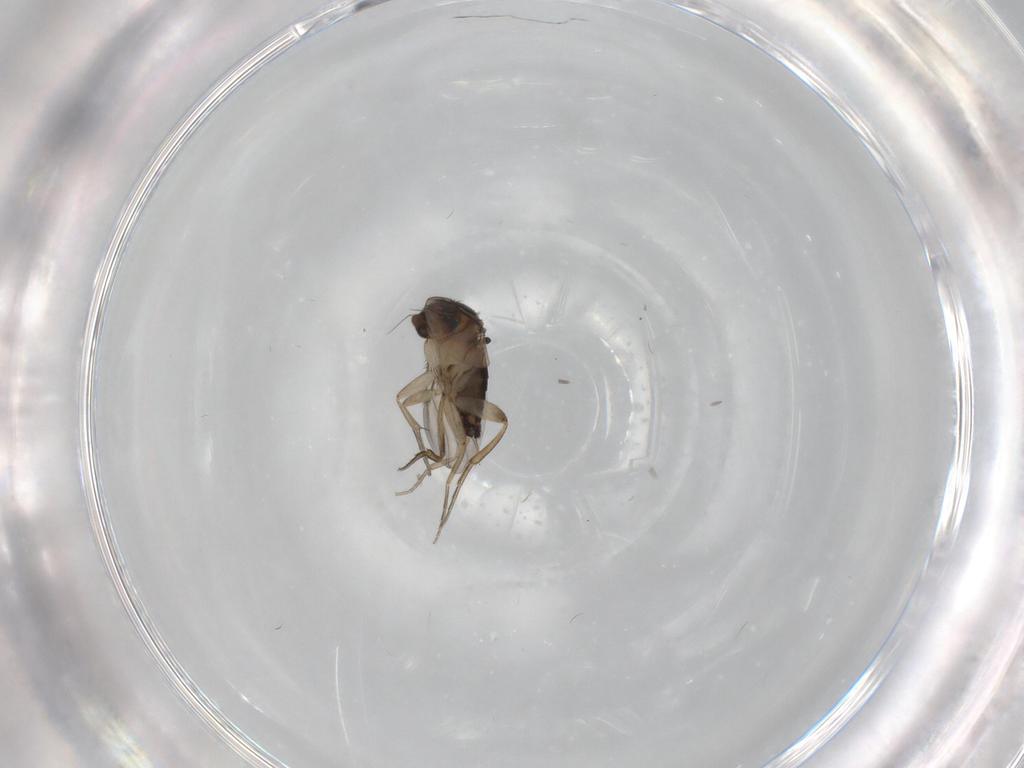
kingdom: Animalia
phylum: Arthropoda
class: Insecta
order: Diptera
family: Phoridae
